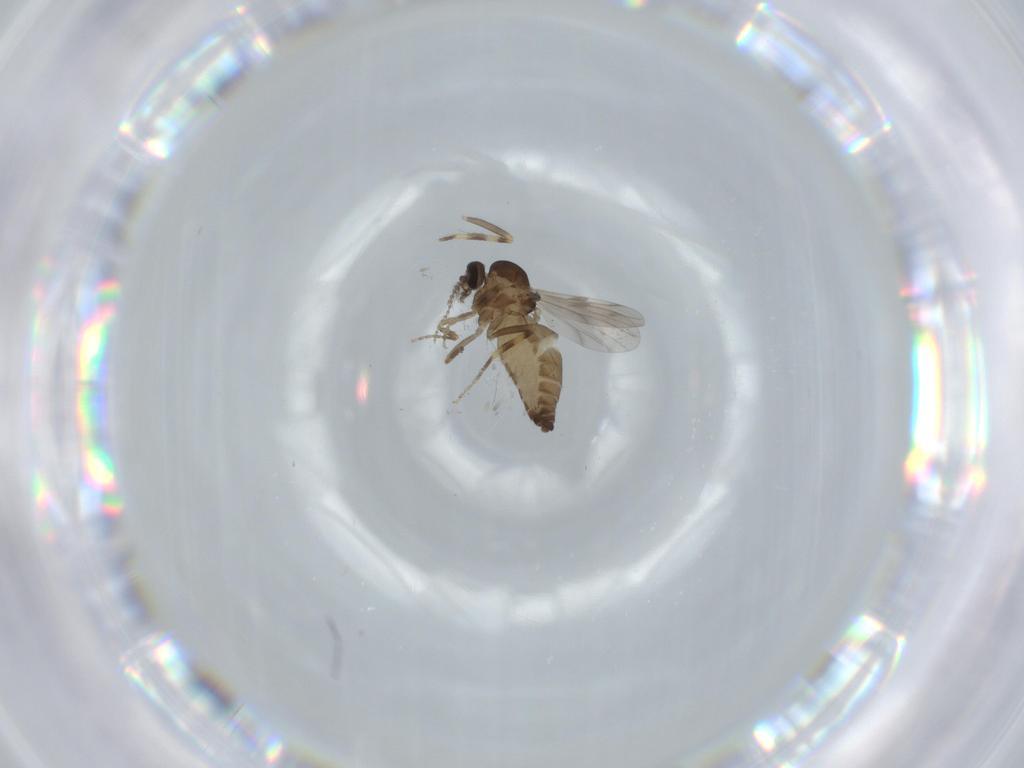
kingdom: Animalia
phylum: Arthropoda
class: Insecta
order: Diptera
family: Ceratopogonidae
